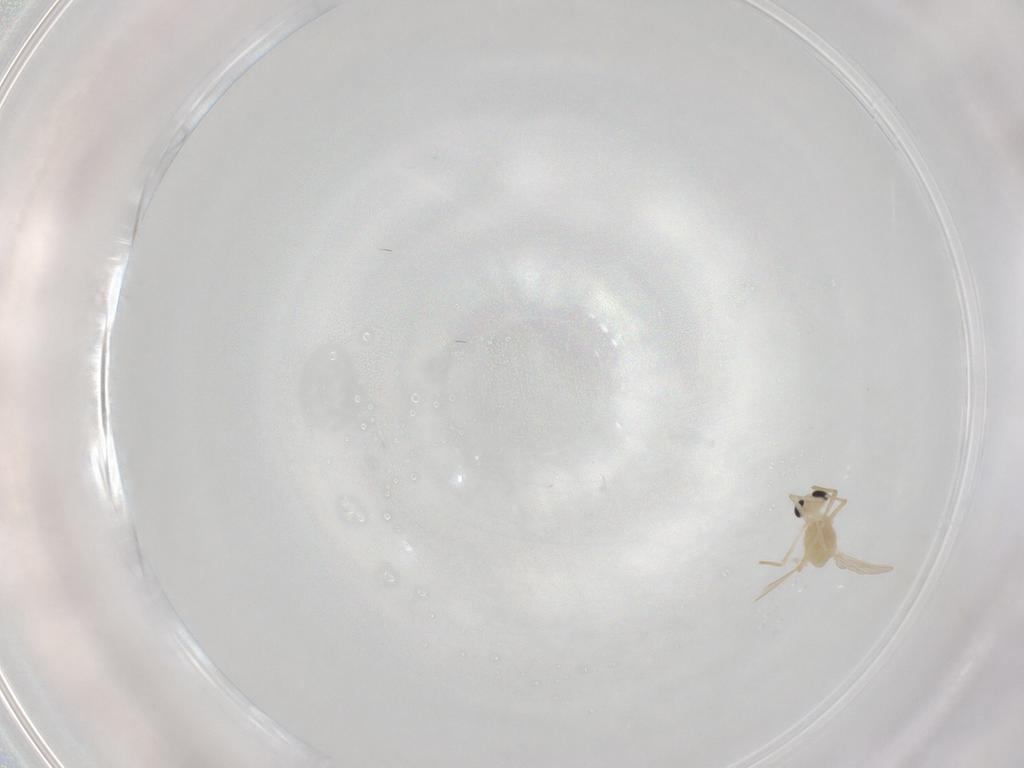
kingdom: Animalia
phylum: Arthropoda
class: Insecta
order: Diptera
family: Chironomidae
